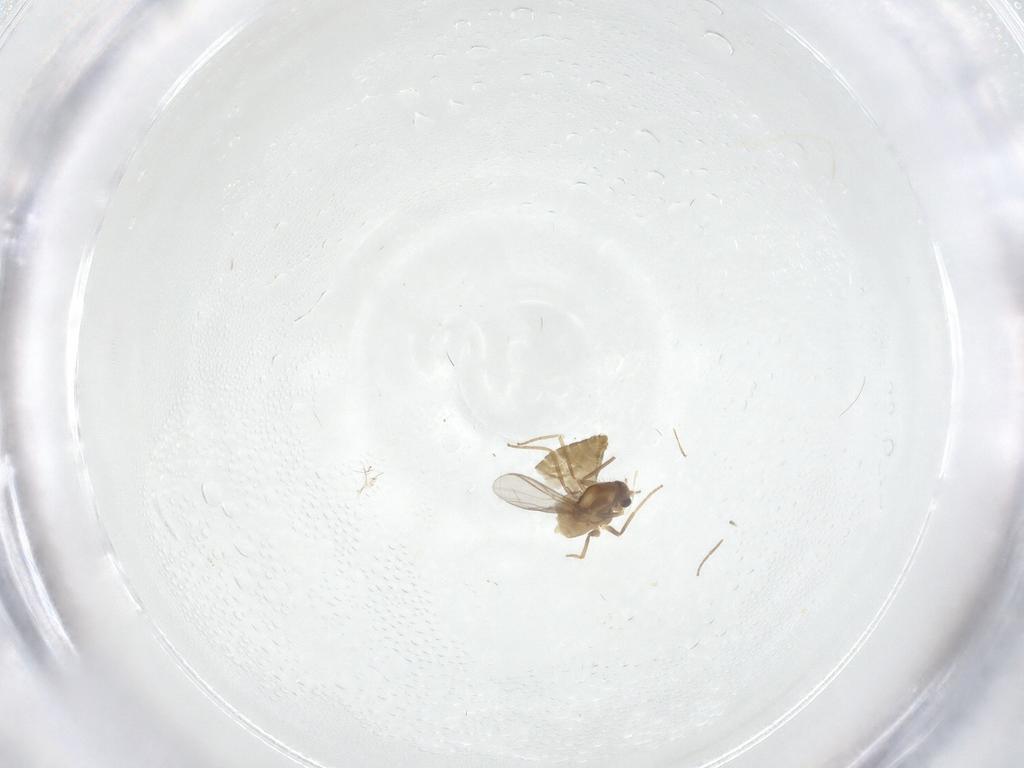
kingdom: Animalia
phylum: Arthropoda
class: Insecta
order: Diptera
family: Chironomidae
